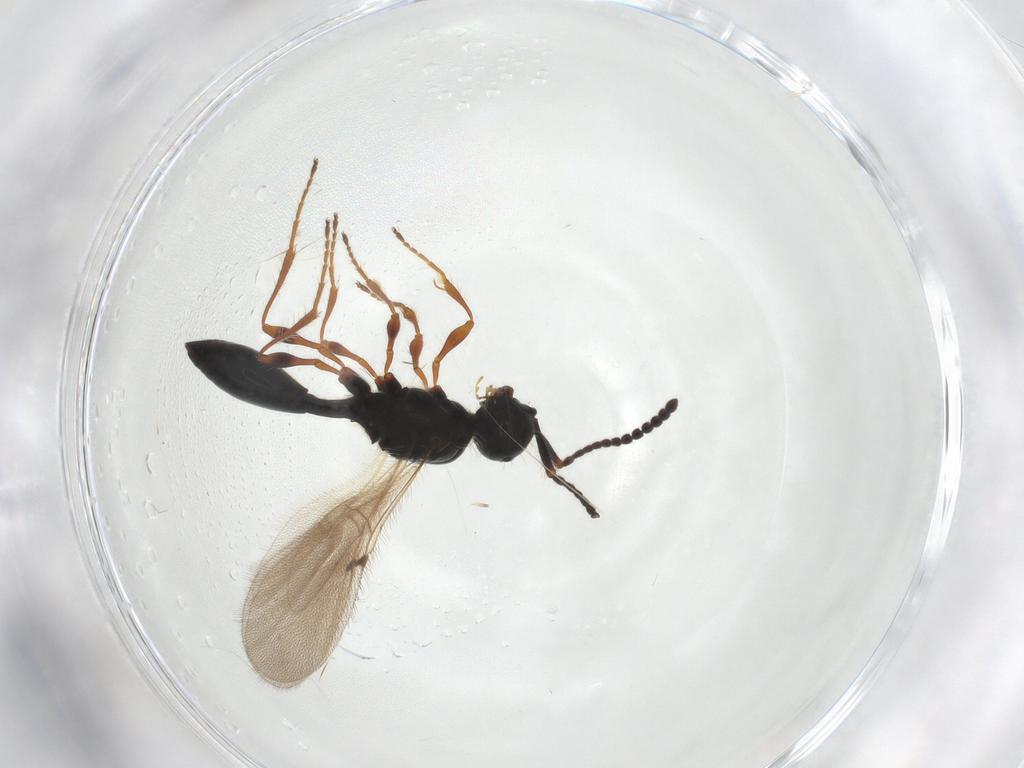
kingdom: Animalia
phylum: Arthropoda
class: Insecta
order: Hymenoptera
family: Diapriidae
